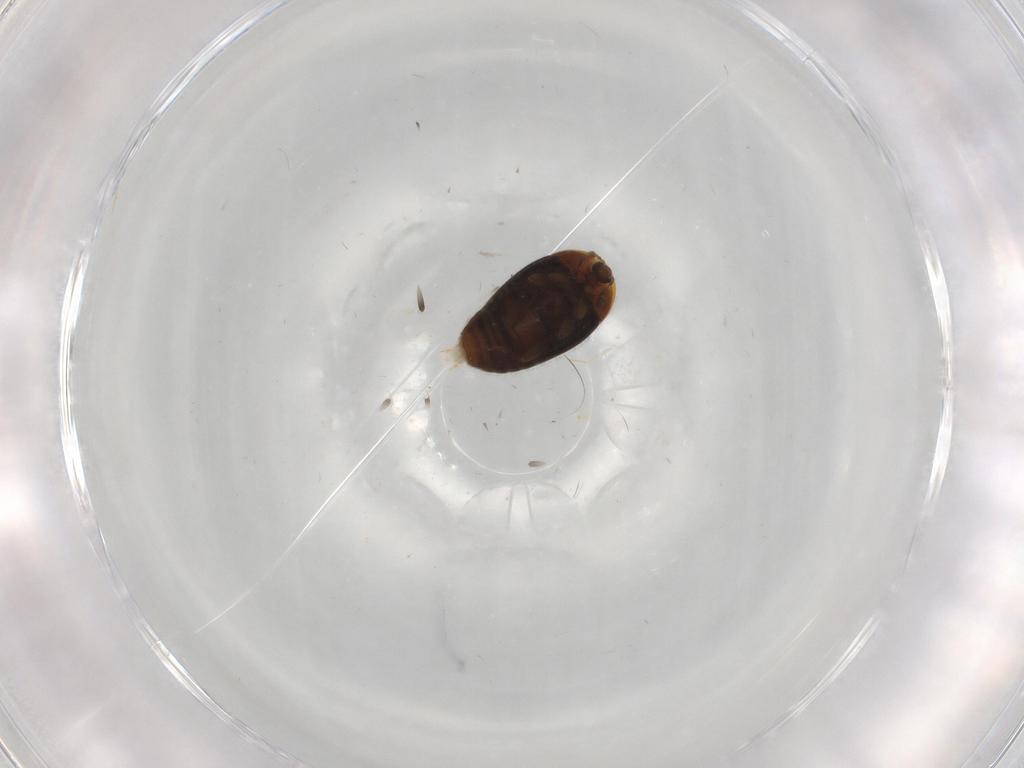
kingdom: Animalia
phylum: Arthropoda
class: Insecta
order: Coleoptera
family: Corylophidae
